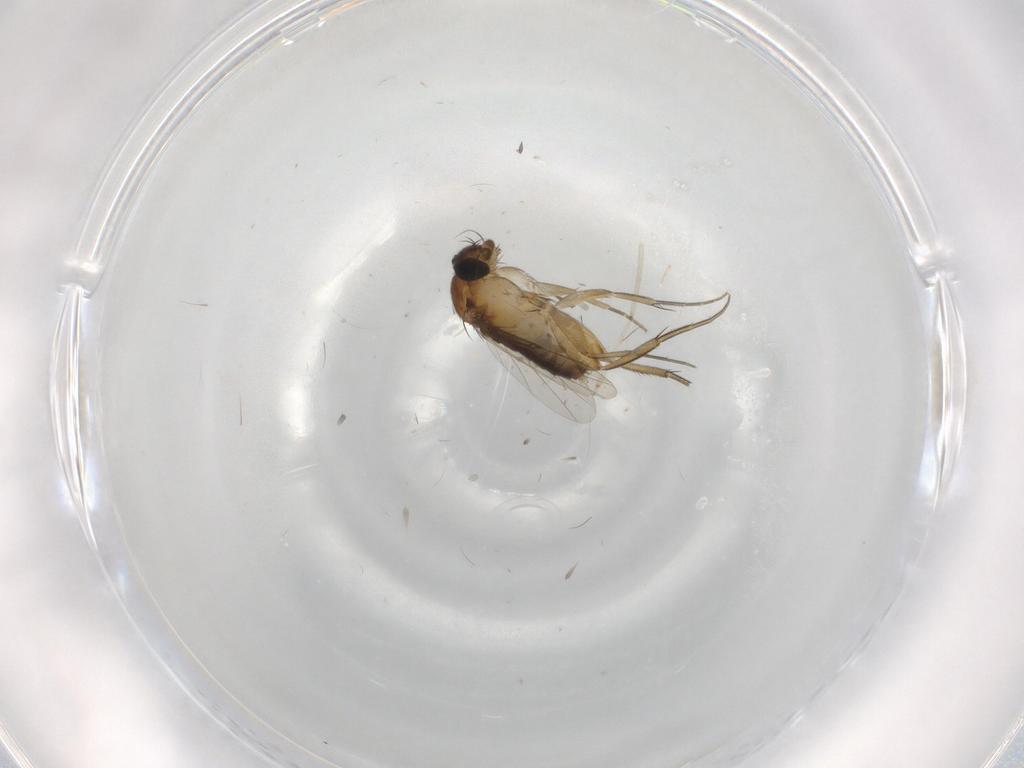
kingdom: Animalia
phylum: Arthropoda
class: Insecta
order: Diptera
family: Phoridae
